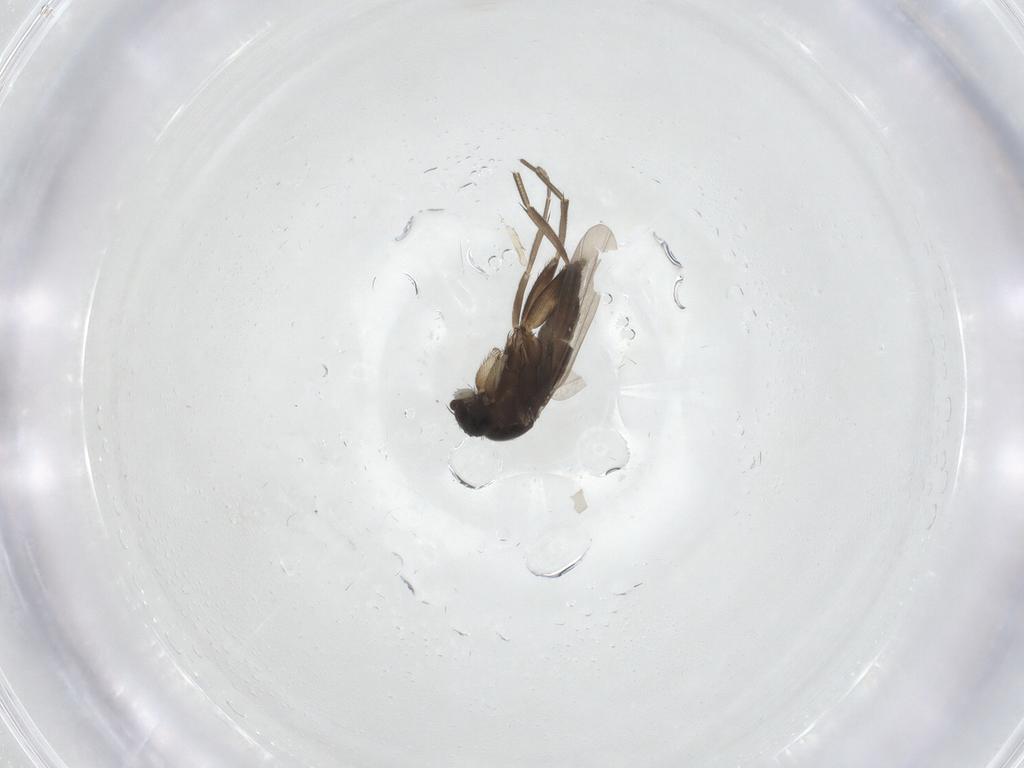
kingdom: Animalia
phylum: Arthropoda
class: Insecta
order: Diptera
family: Phoridae
